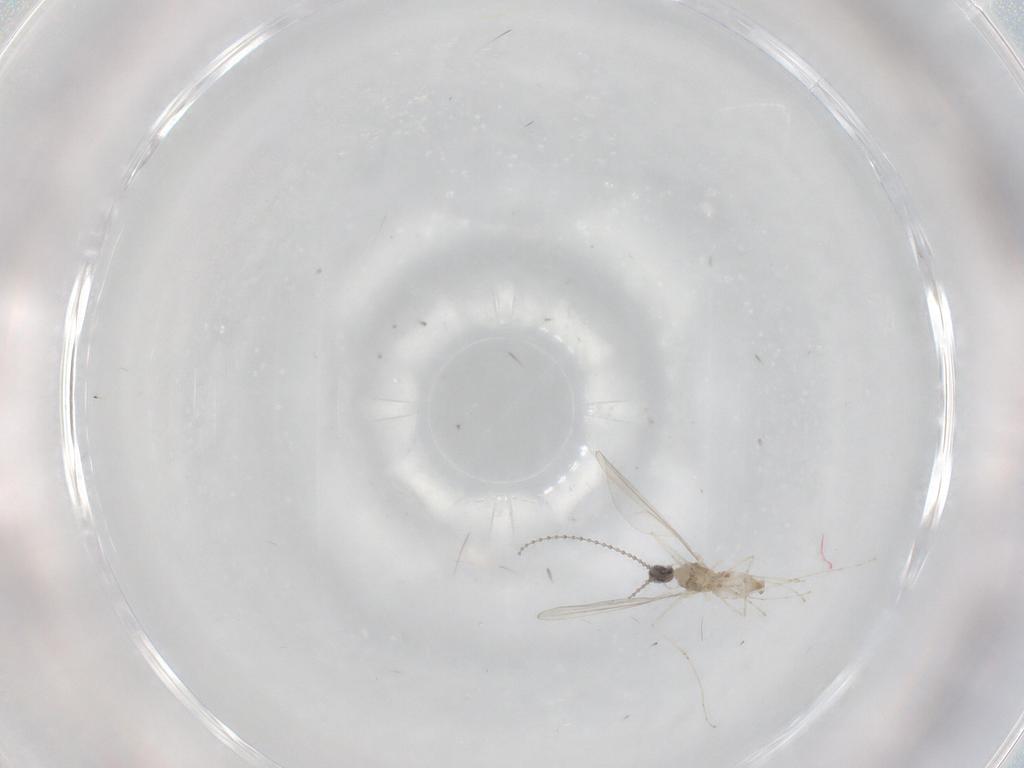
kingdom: Animalia
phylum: Arthropoda
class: Insecta
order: Diptera
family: Cecidomyiidae
